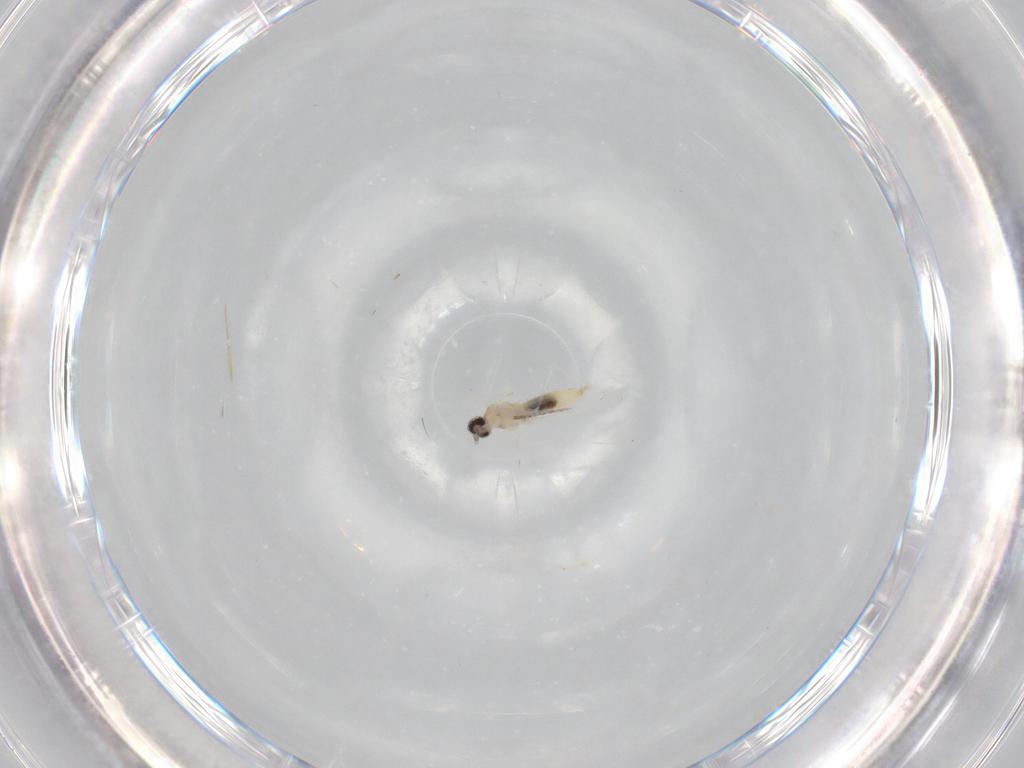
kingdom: Animalia
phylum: Arthropoda
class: Insecta
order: Diptera
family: Cecidomyiidae
